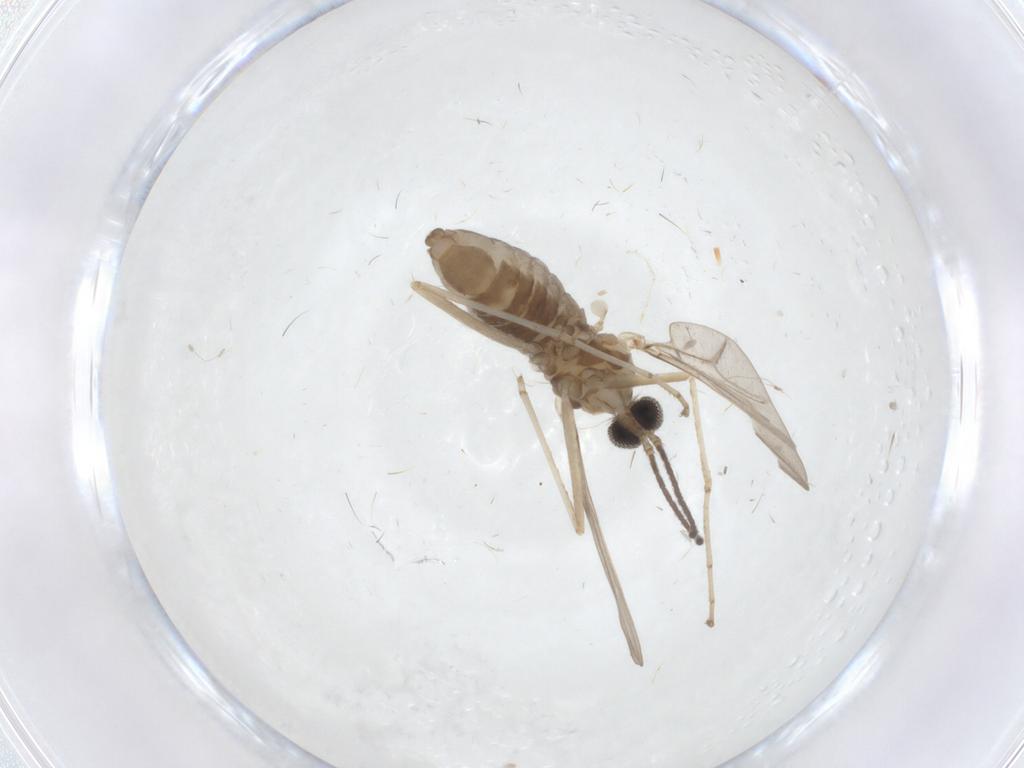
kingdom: Animalia
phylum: Arthropoda
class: Insecta
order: Diptera
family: Cecidomyiidae
